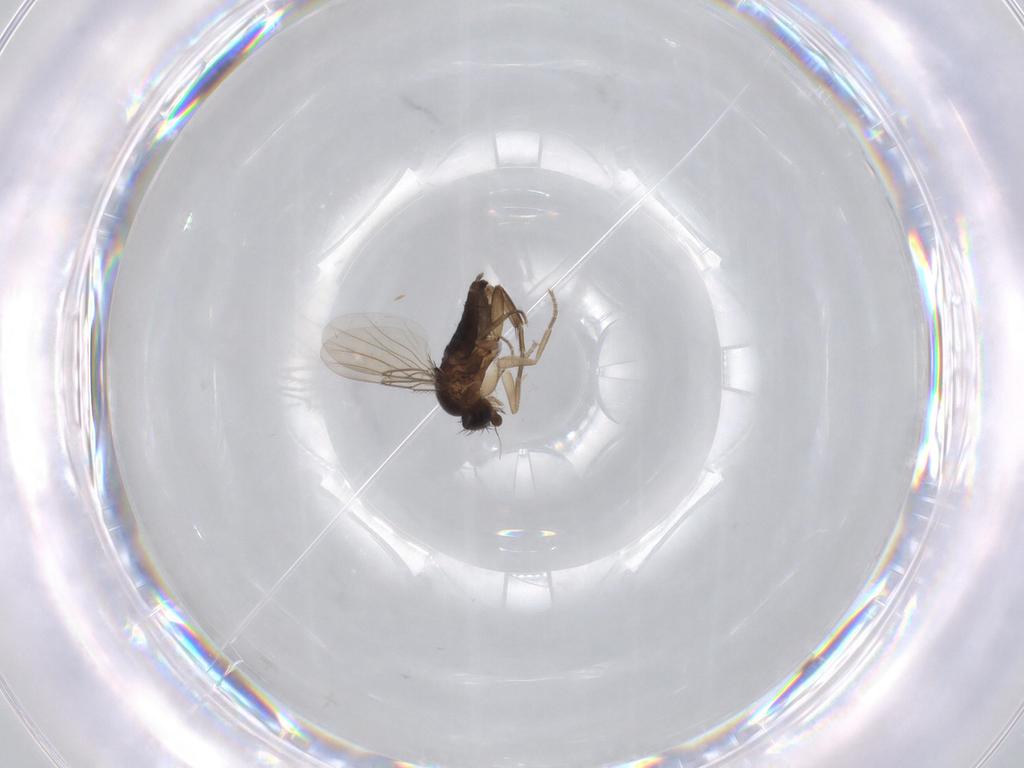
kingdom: Animalia
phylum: Arthropoda
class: Insecta
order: Diptera
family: Phoridae
